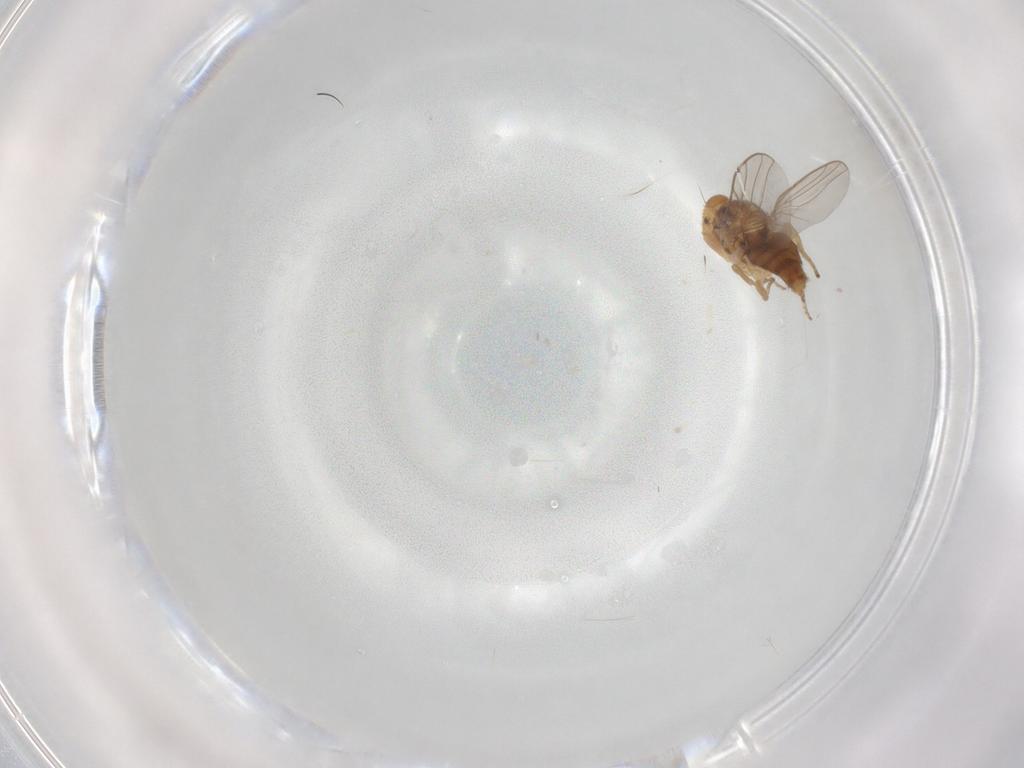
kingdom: Animalia
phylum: Arthropoda
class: Insecta
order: Diptera
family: Chloropidae
